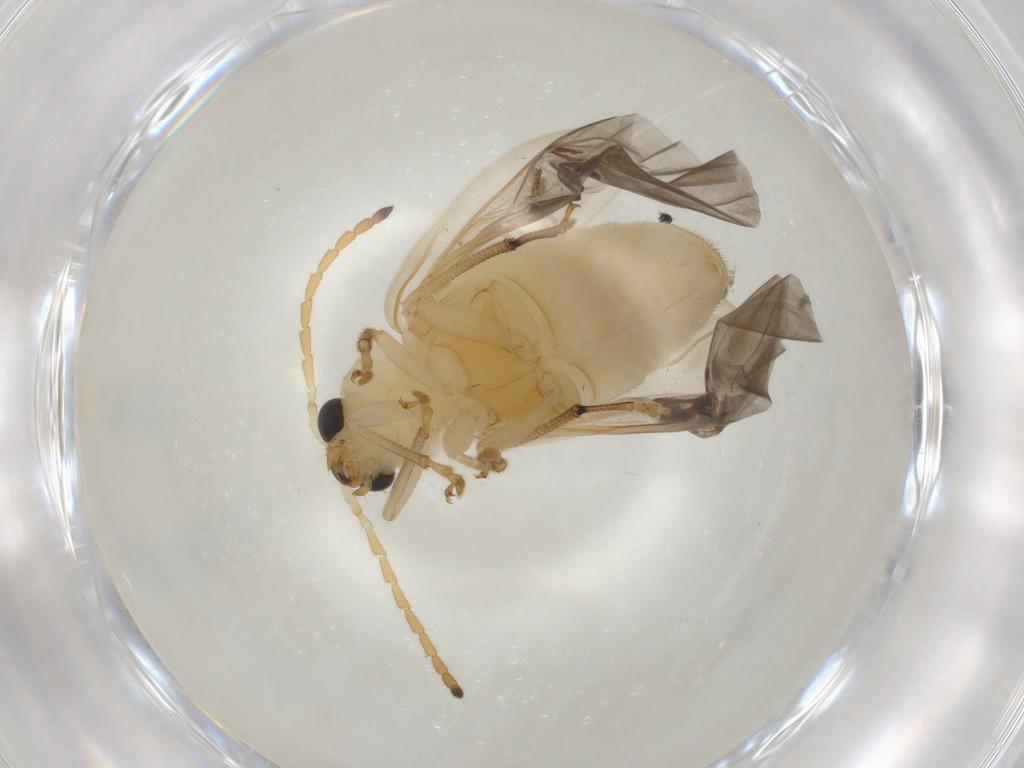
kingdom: Animalia
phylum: Arthropoda
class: Insecta
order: Coleoptera
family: Chrysomelidae
